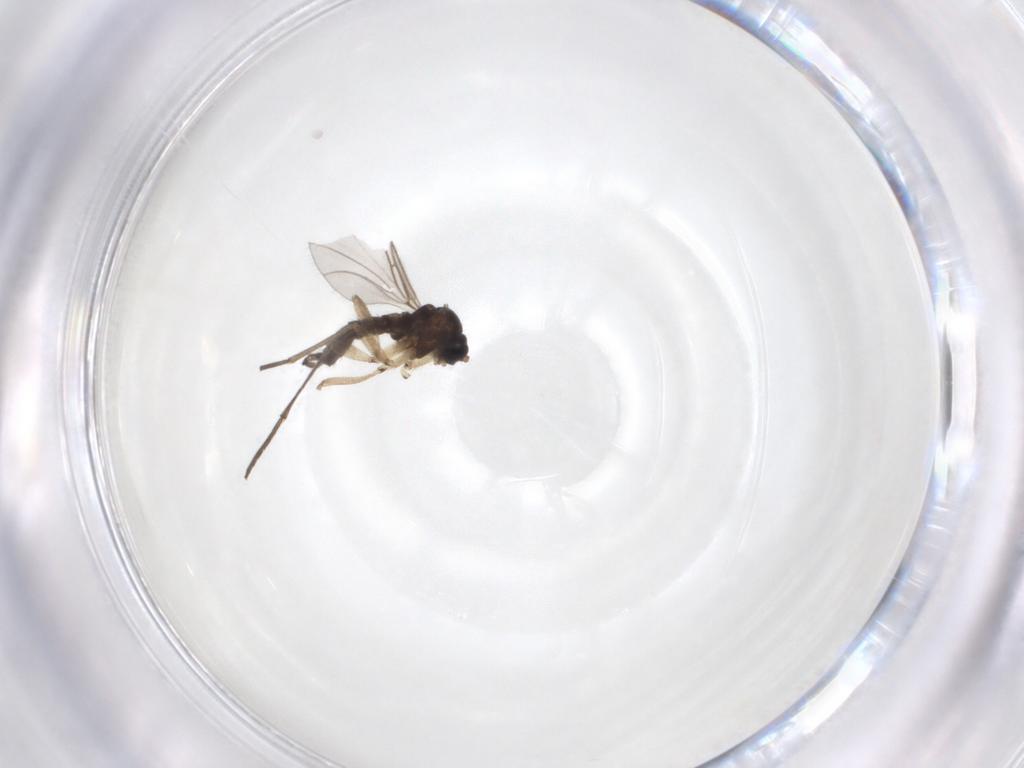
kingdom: Animalia
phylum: Arthropoda
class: Insecta
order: Diptera
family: Sciaridae
